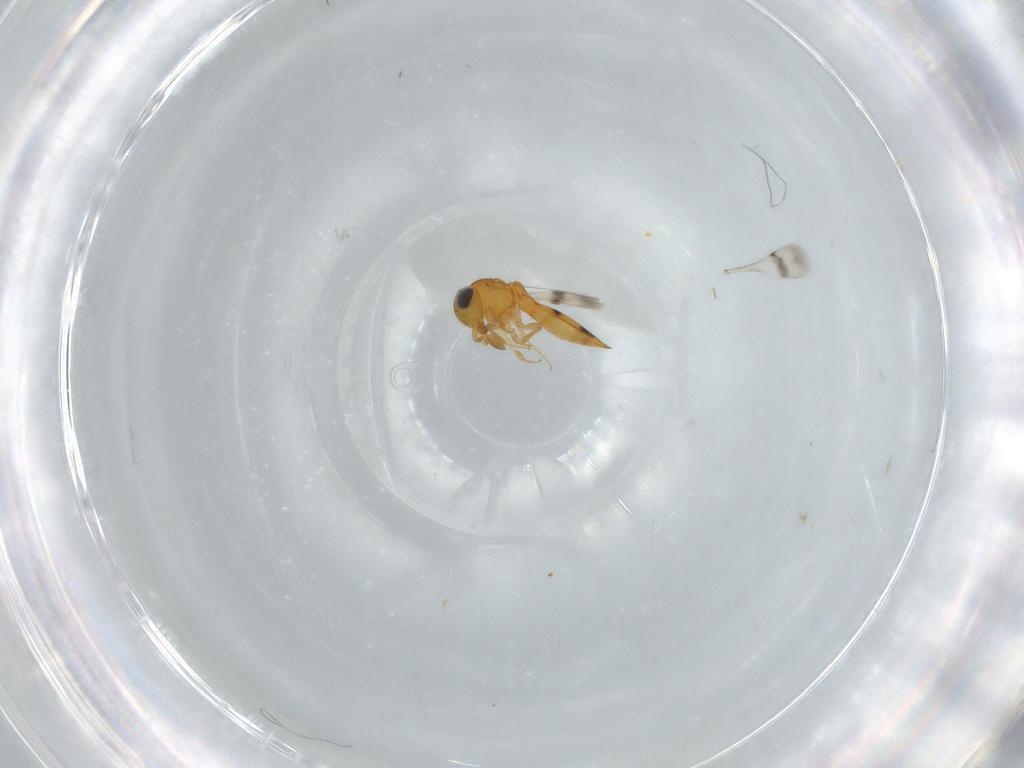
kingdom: Animalia
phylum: Arthropoda
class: Insecta
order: Hymenoptera
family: Scelionidae
